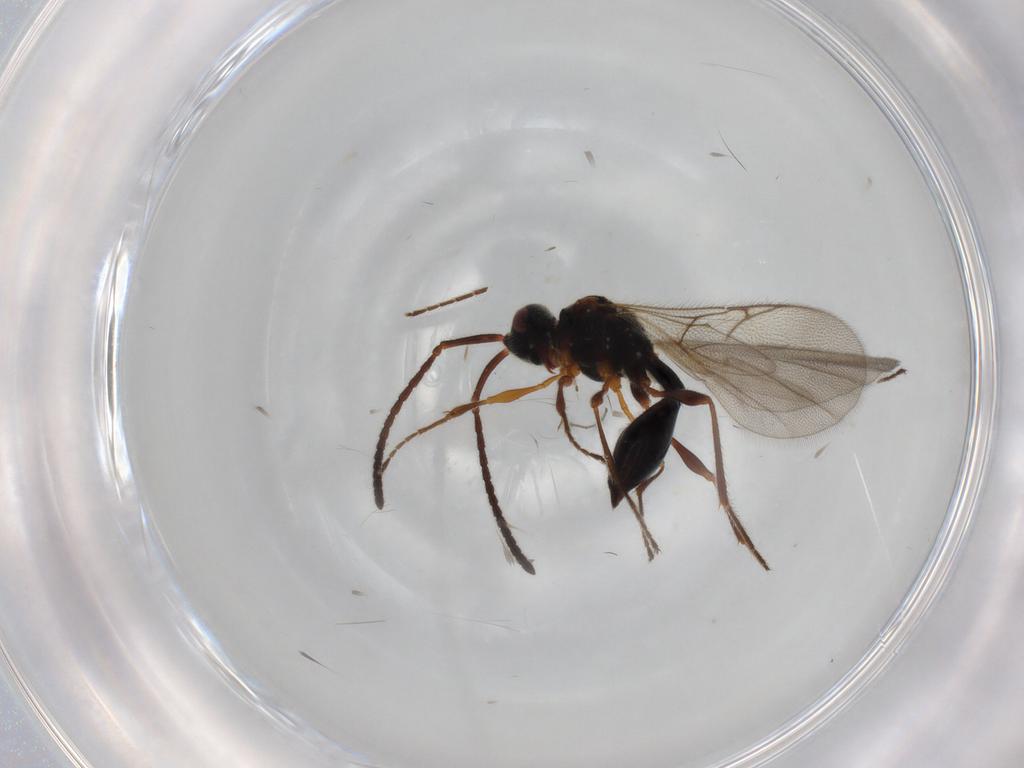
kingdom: Animalia
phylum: Arthropoda
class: Insecta
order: Hymenoptera
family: Diapriidae
